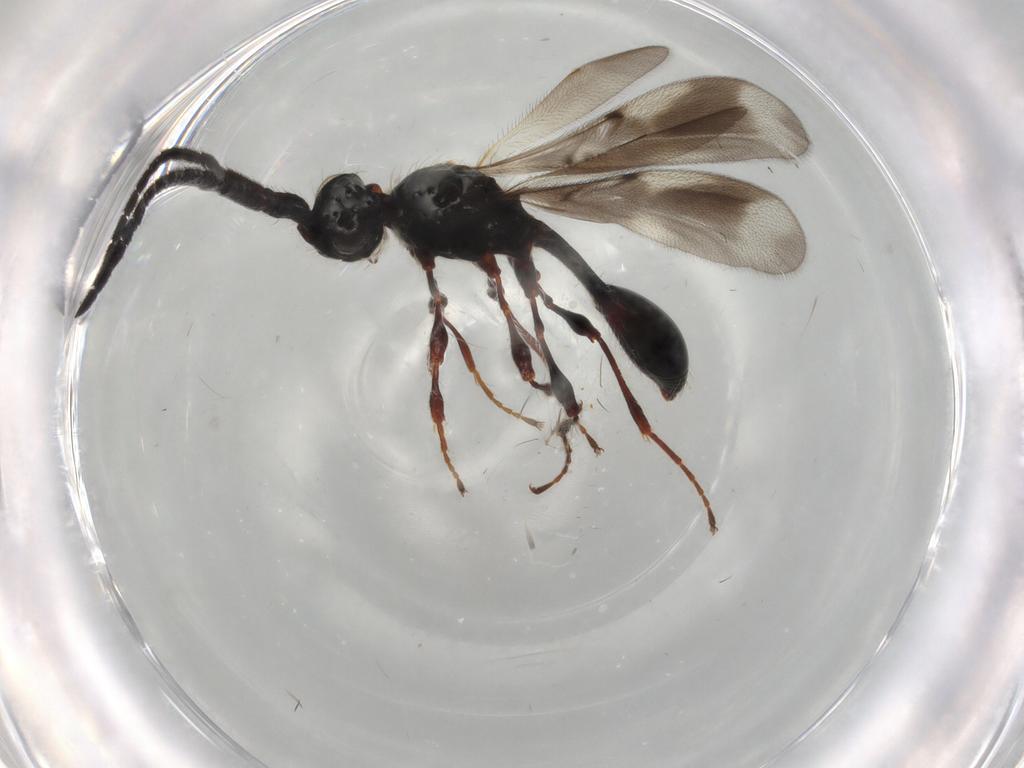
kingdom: Animalia
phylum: Arthropoda
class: Insecta
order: Hymenoptera
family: Diapriidae
